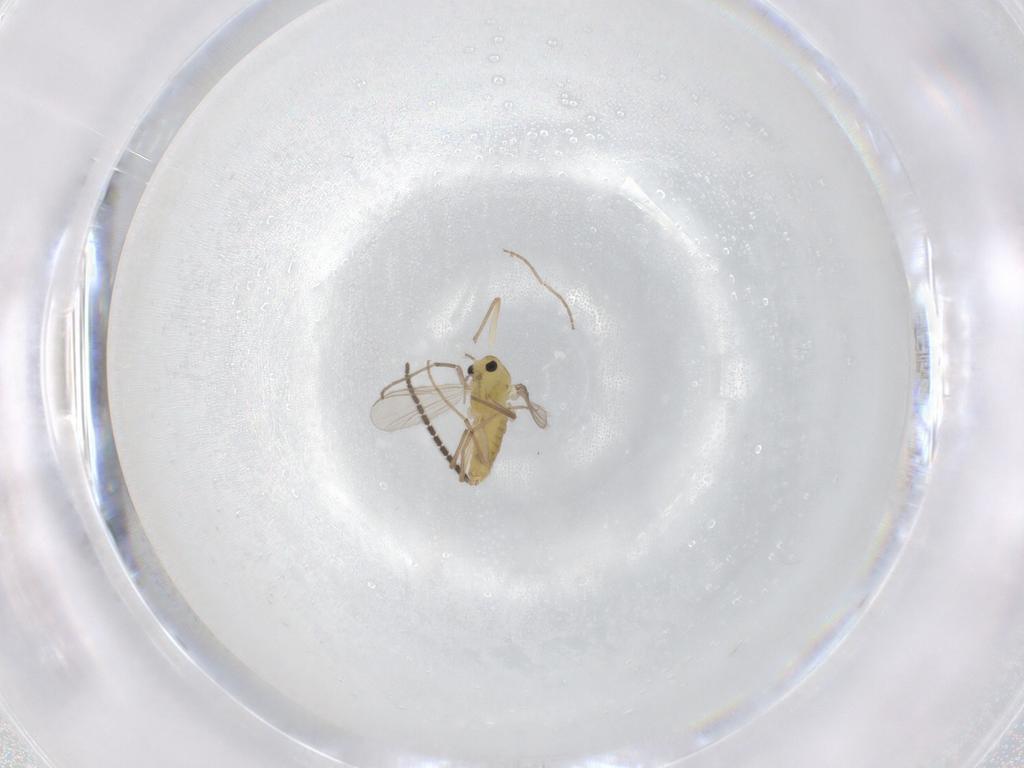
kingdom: Animalia
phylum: Arthropoda
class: Insecta
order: Diptera
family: Chironomidae
